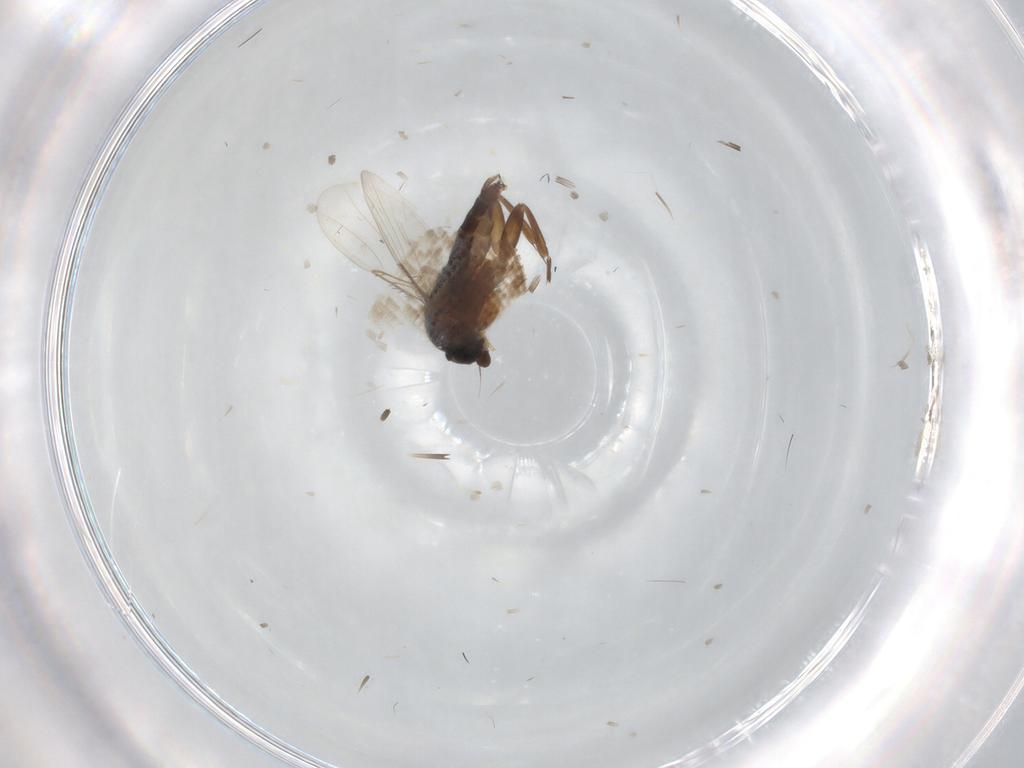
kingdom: Animalia
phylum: Arthropoda
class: Insecta
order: Diptera
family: Phoridae
